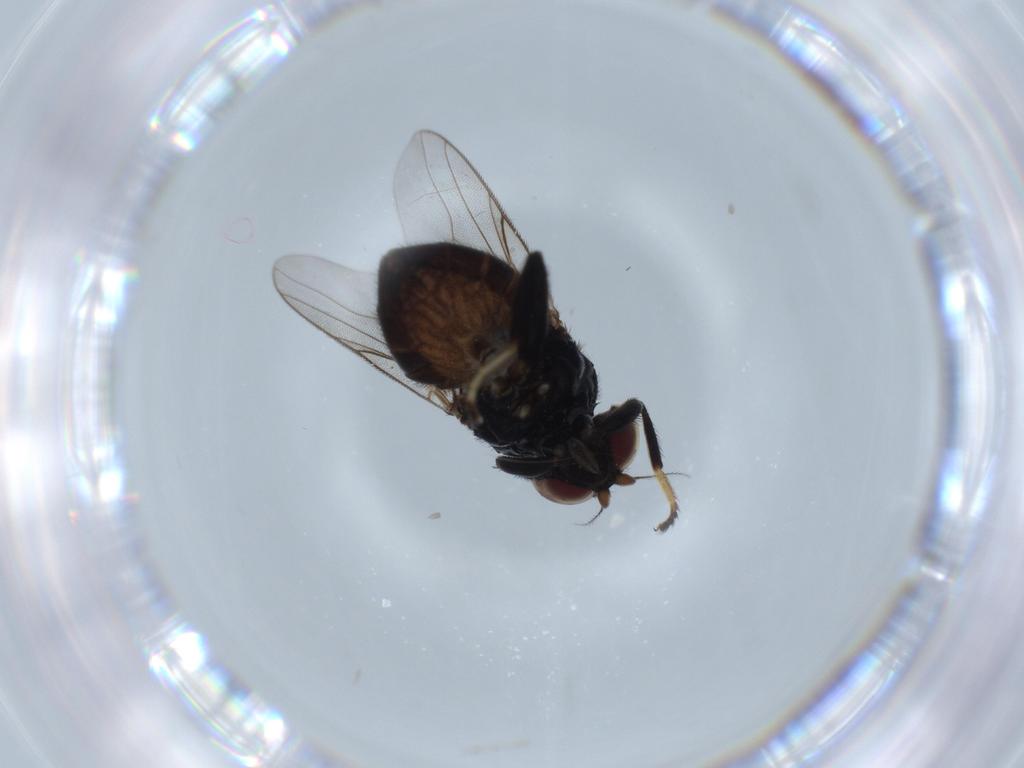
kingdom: Animalia
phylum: Arthropoda
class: Insecta
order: Diptera
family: Chloropidae
